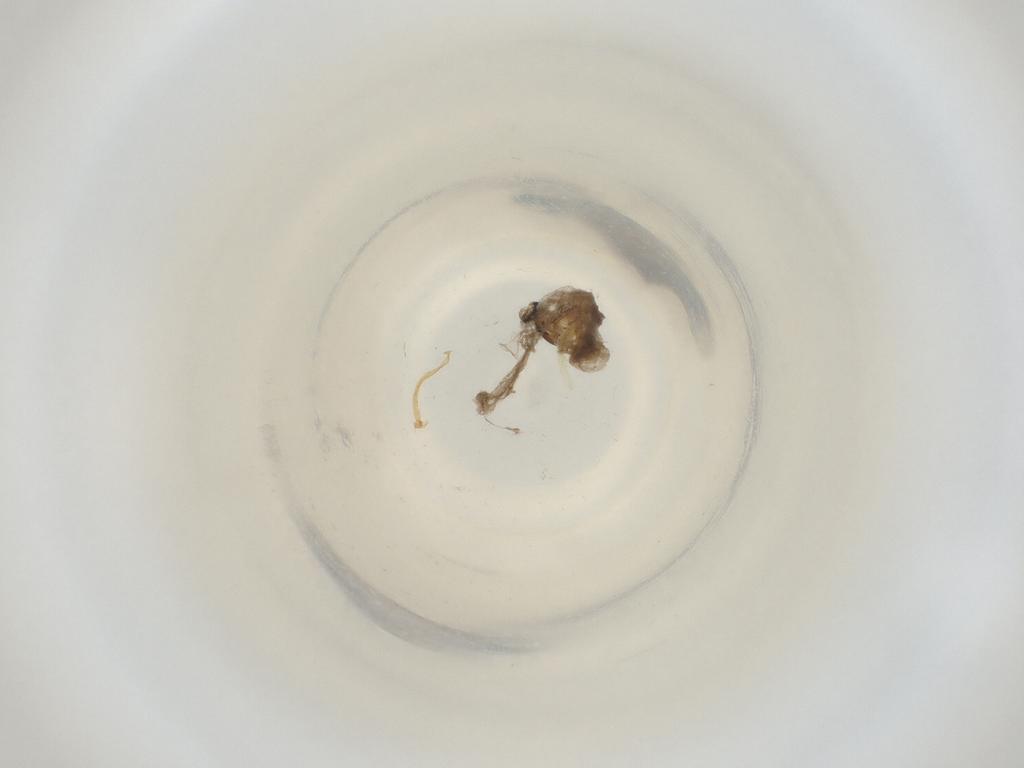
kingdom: Animalia
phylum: Arthropoda
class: Insecta
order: Diptera
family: Cecidomyiidae
